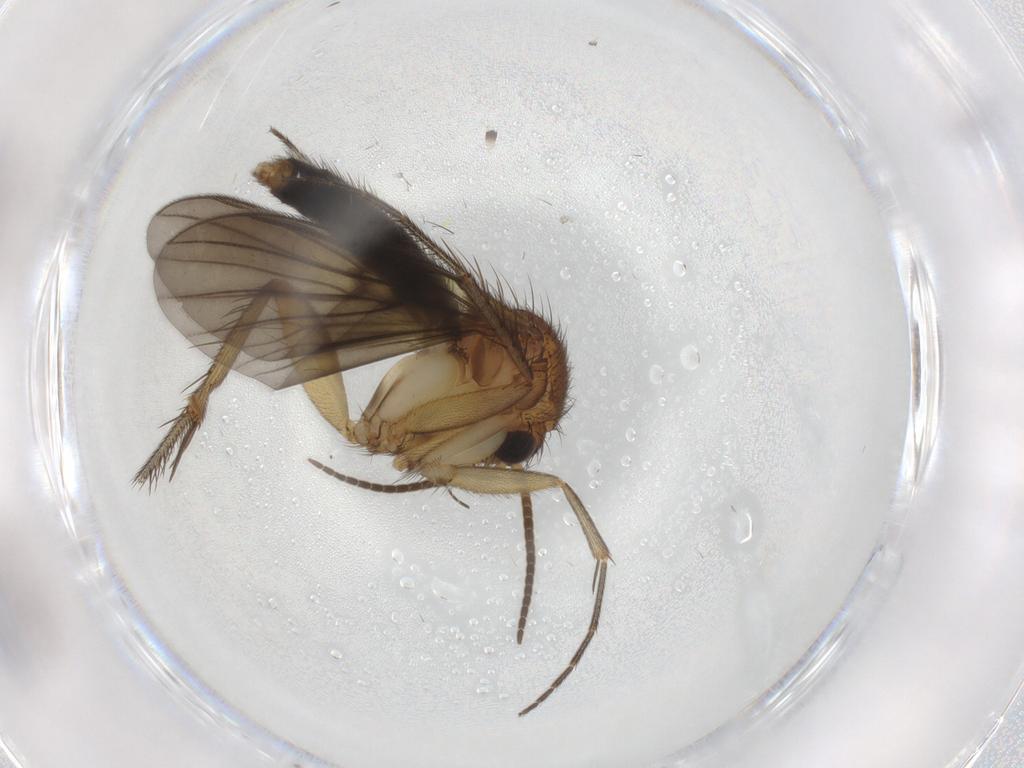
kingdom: Animalia
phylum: Arthropoda
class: Insecta
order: Diptera
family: Mycetophilidae
